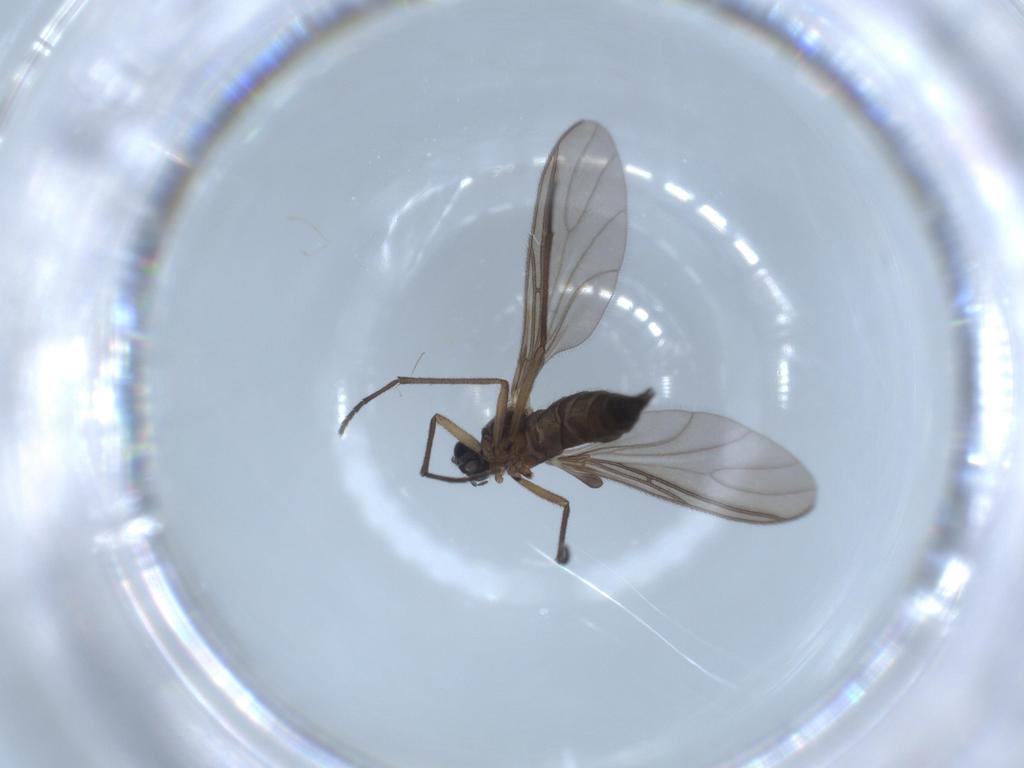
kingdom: Animalia
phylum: Arthropoda
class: Insecta
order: Diptera
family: Sciaridae
